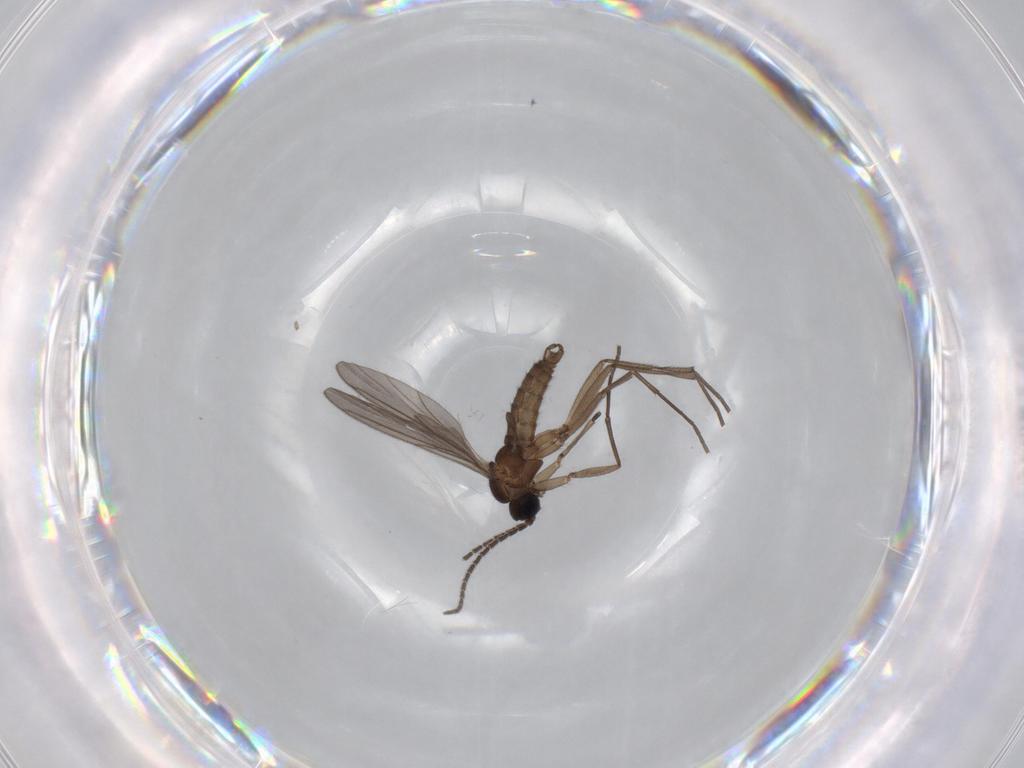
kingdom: Animalia
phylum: Arthropoda
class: Insecta
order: Diptera
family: Sciaridae
